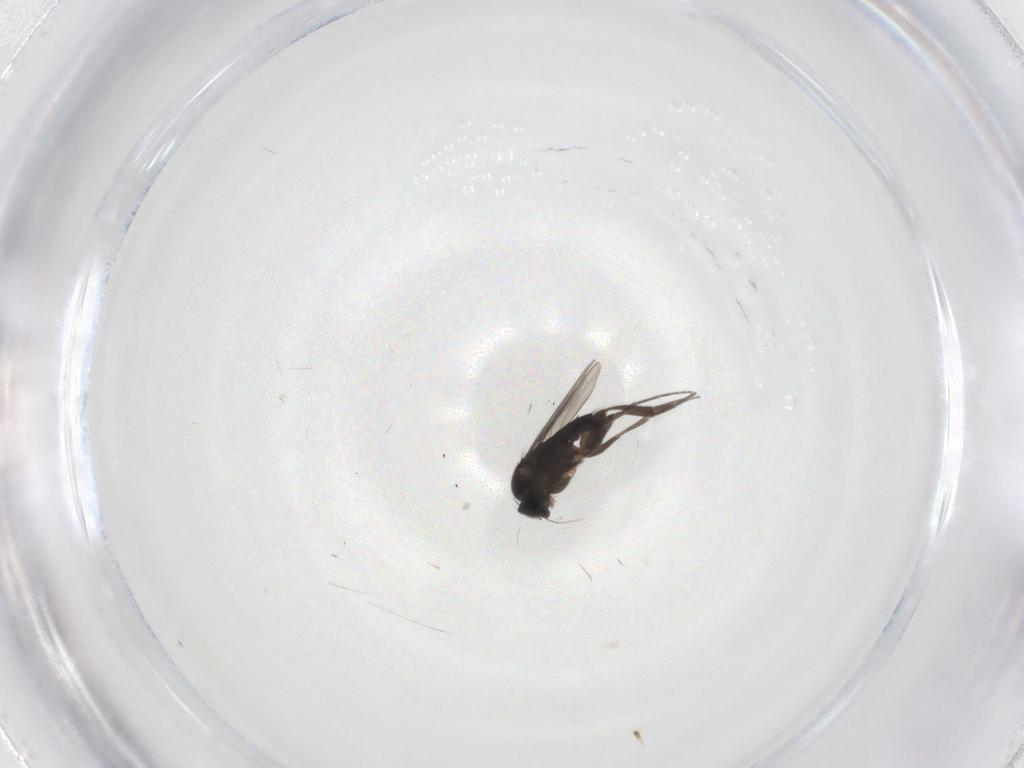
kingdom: Animalia
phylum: Arthropoda
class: Insecta
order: Diptera
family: Phoridae
